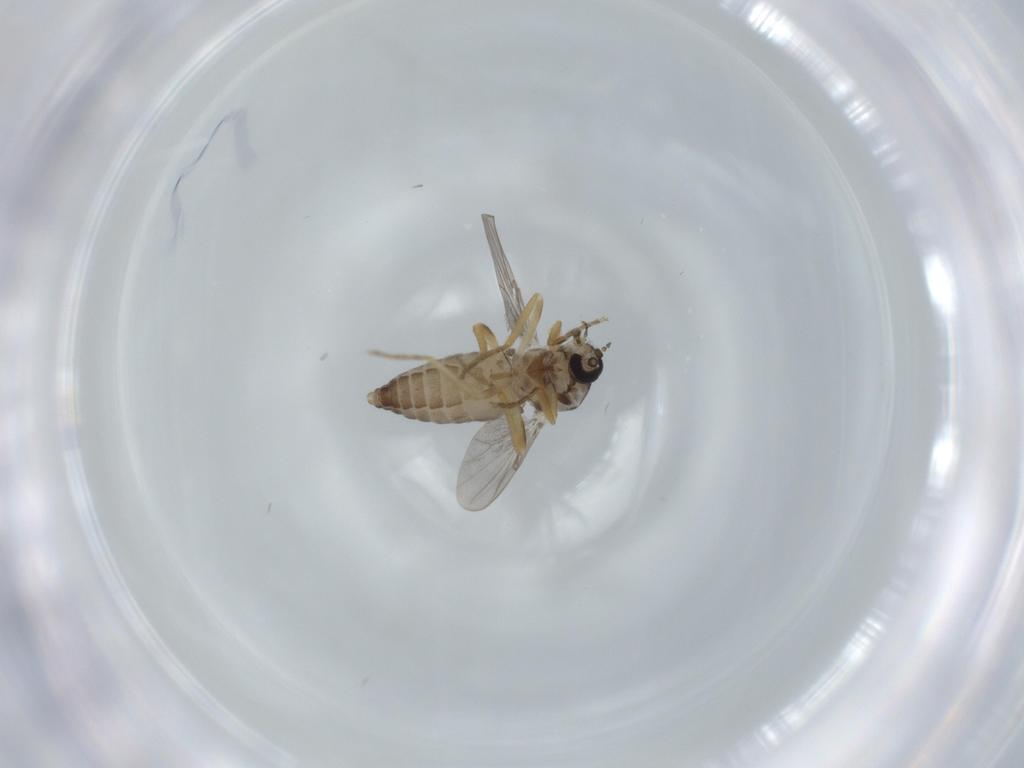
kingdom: Animalia
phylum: Arthropoda
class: Insecta
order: Diptera
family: Ceratopogonidae
